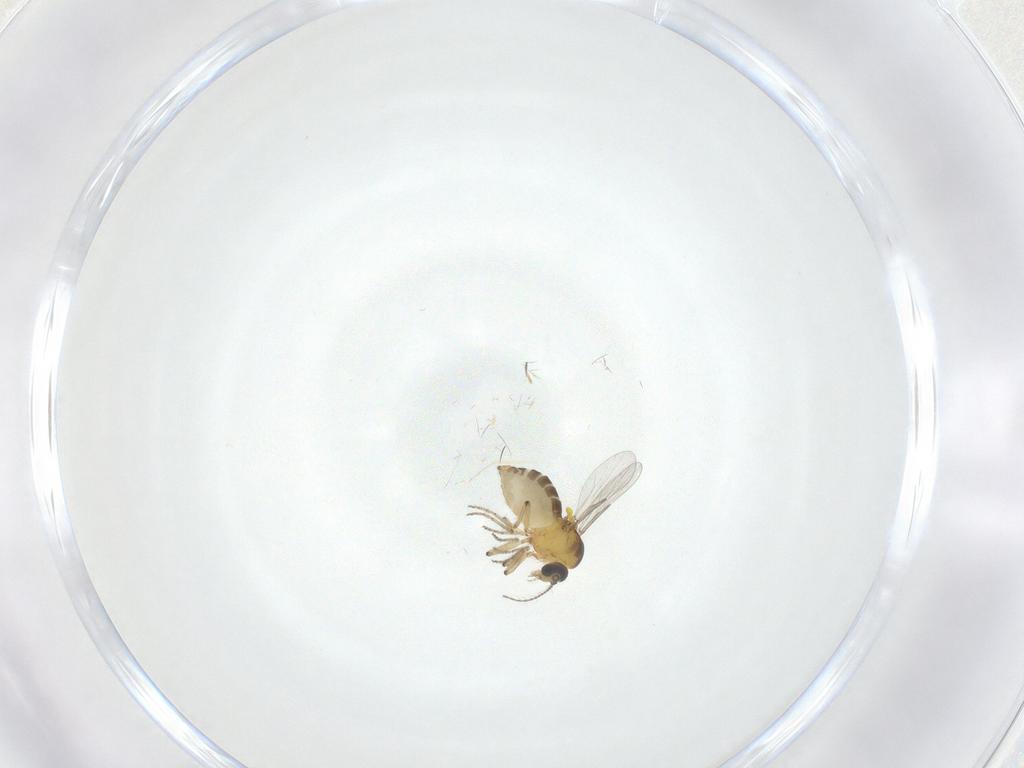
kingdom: Animalia
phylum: Arthropoda
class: Insecta
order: Diptera
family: Ceratopogonidae
